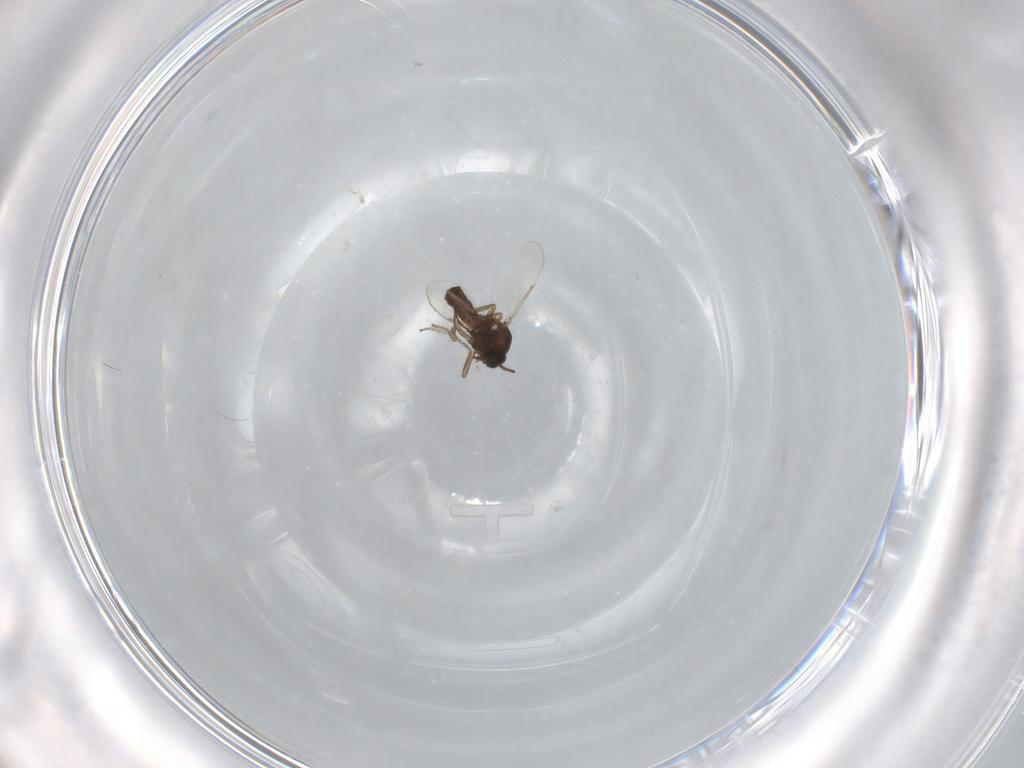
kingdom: Animalia
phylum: Arthropoda
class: Insecta
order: Diptera
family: Ceratopogonidae
